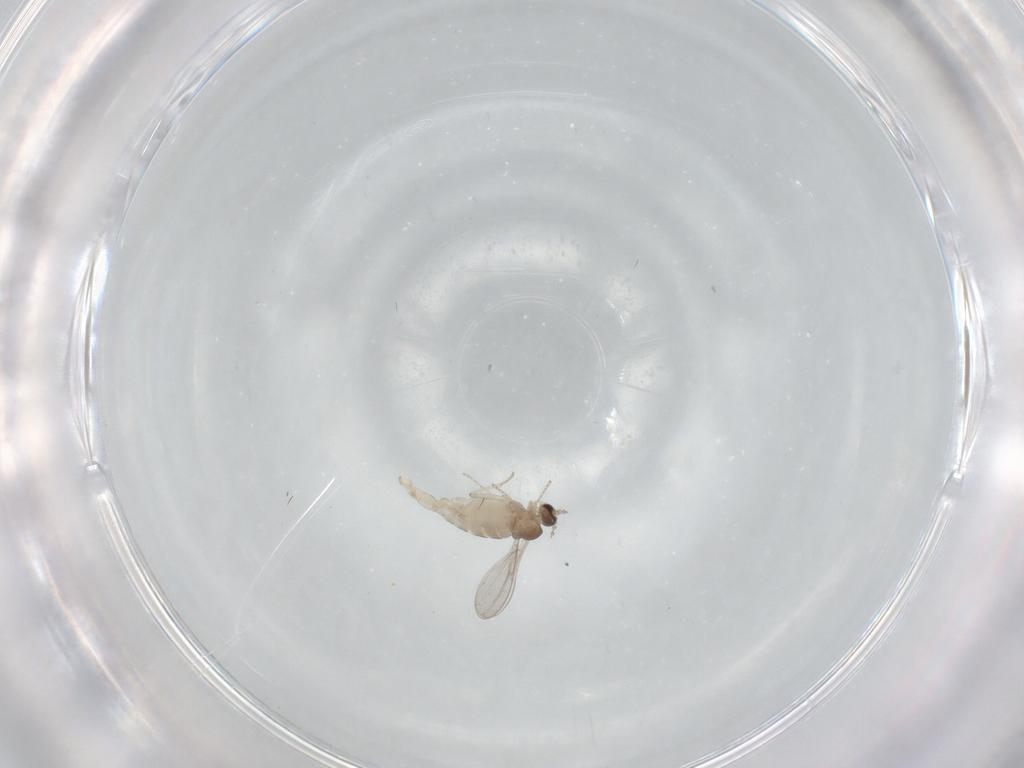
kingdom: Animalia
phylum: Arthropoda
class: Insecta
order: Diptera
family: Cecidomyiidae
